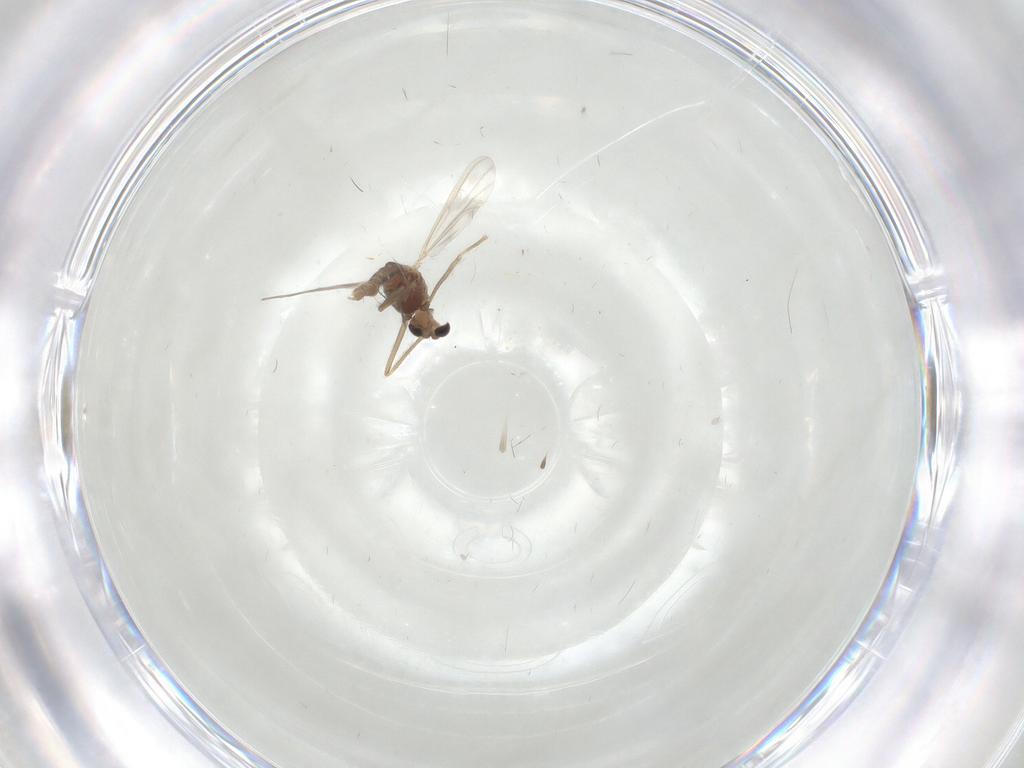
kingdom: Animalia
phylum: Arthropoda
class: Insecta
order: Diptera
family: Chironomidae
